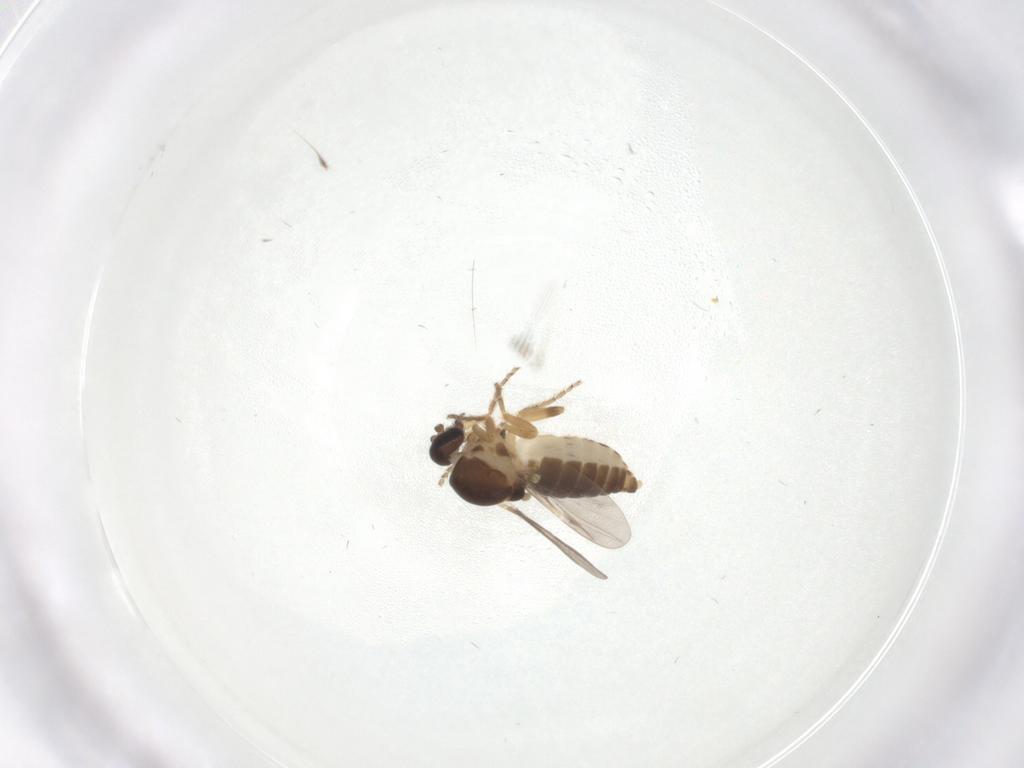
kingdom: Animalia
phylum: Arthropoda
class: Insecta
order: Diptera
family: Ceratopogonidae
